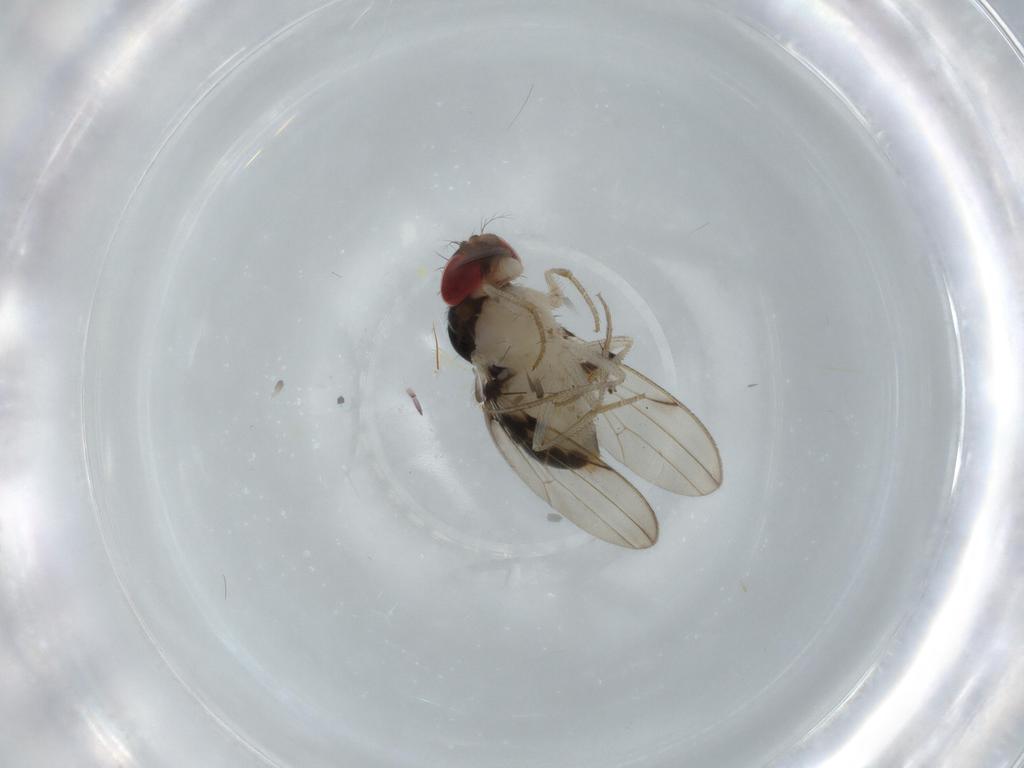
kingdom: Animalia
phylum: Arthropoda
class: Insecta
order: Diptera
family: Drosophilidae
